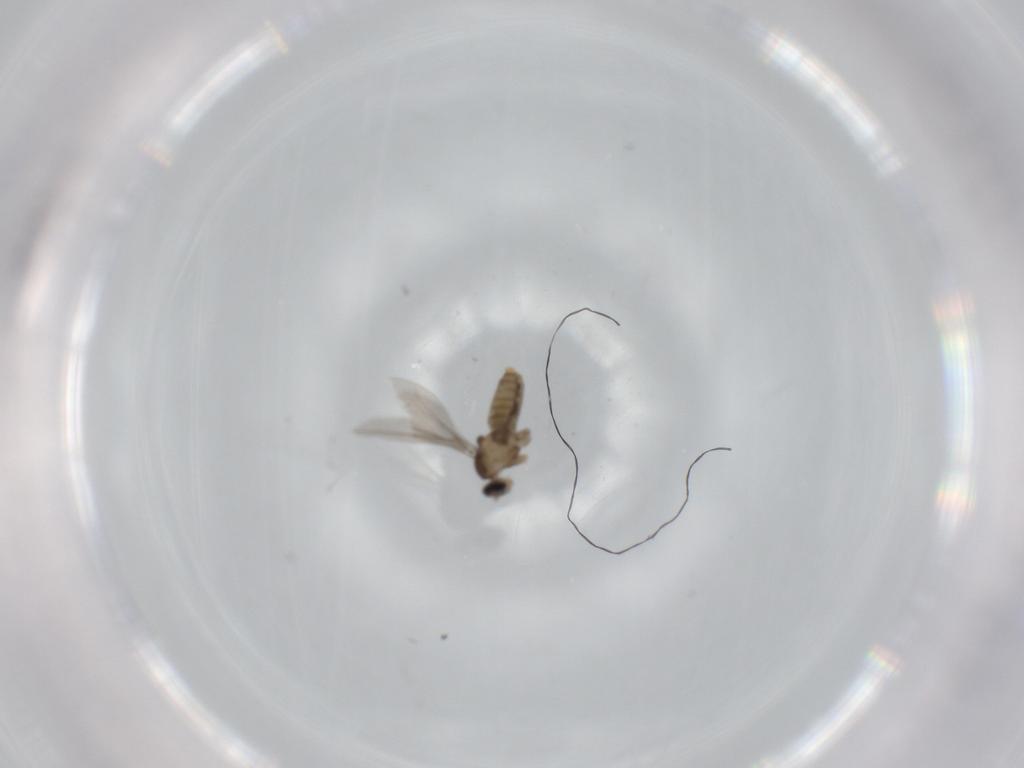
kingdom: Animalia
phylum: Arthropoda
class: Insecta
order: Diptera
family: Cecidomyiidae
